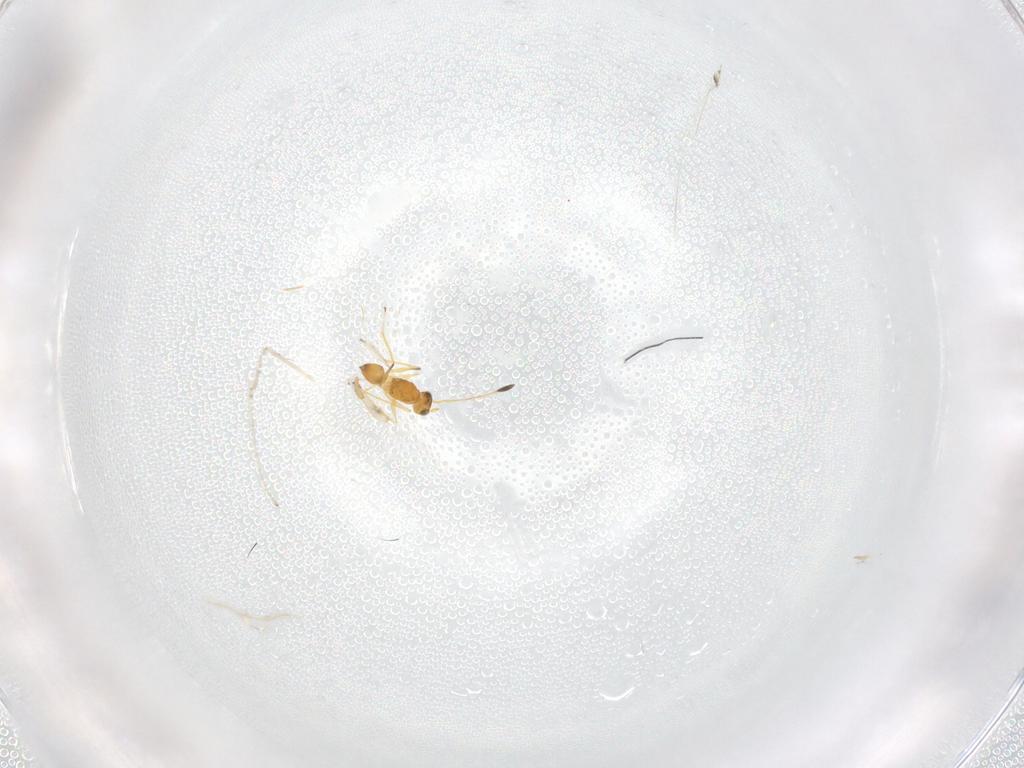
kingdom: Animalia
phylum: Arthropoda
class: Insecta
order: Hymenoptera
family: Mymaridae
